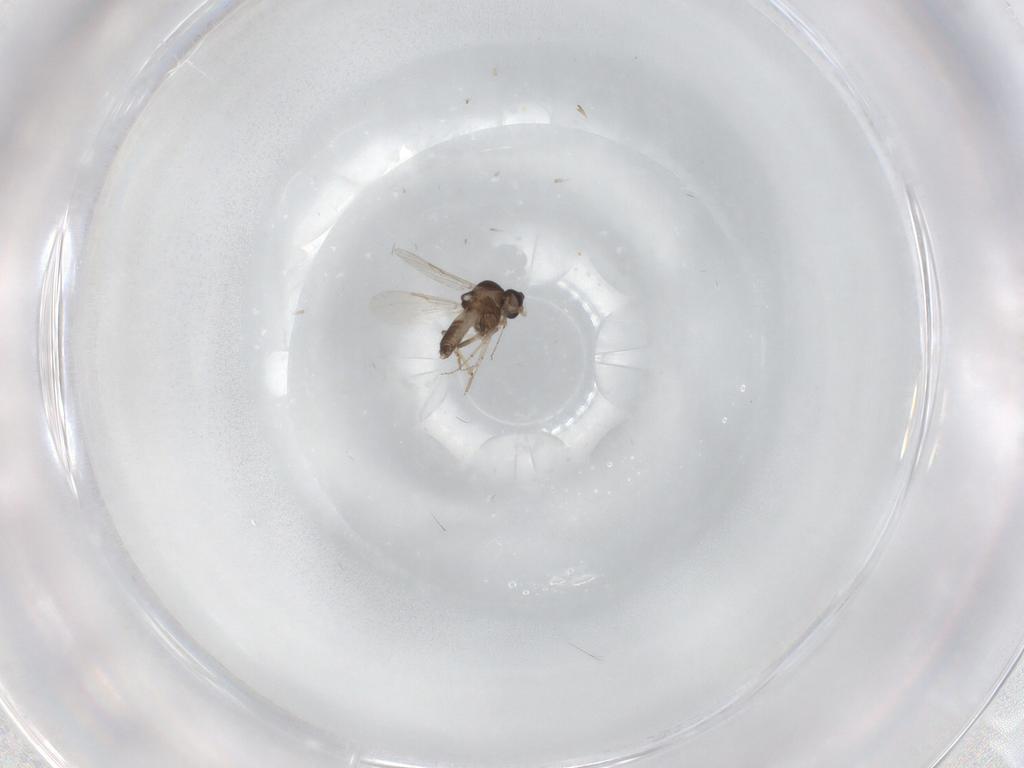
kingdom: Animalia
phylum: Arthropoda
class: Insecta
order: Diptera
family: Ceratopogonidae
